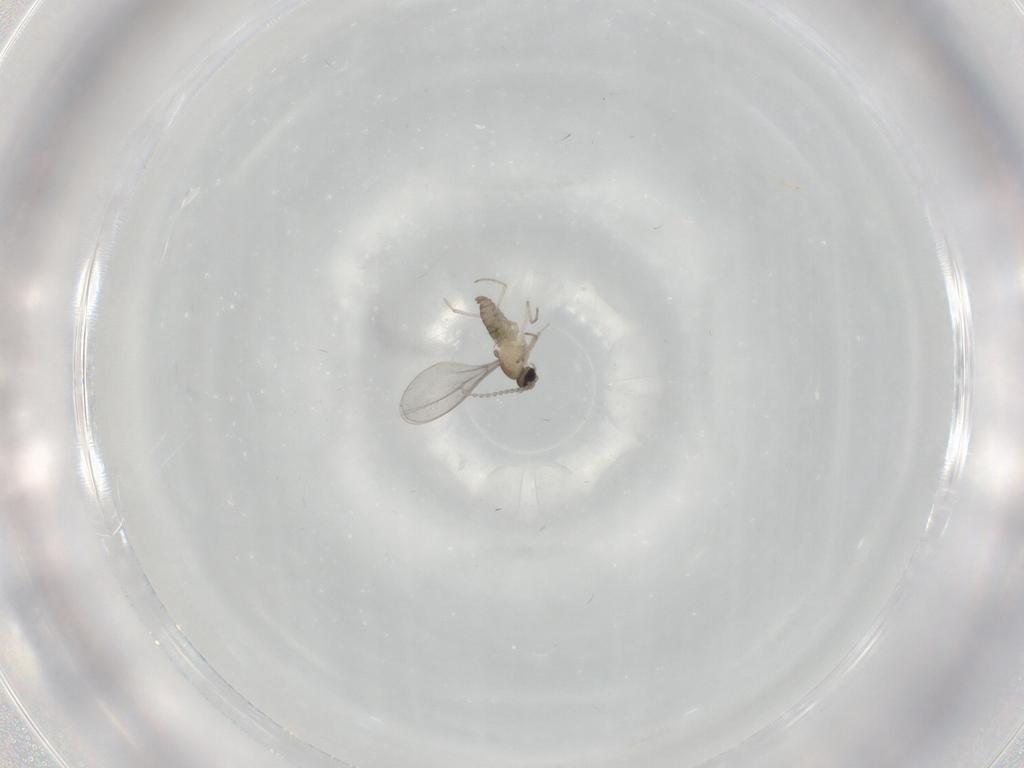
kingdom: Animalia
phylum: Arthropoda
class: Insecta
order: Diptera
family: Cecidomyiidae
